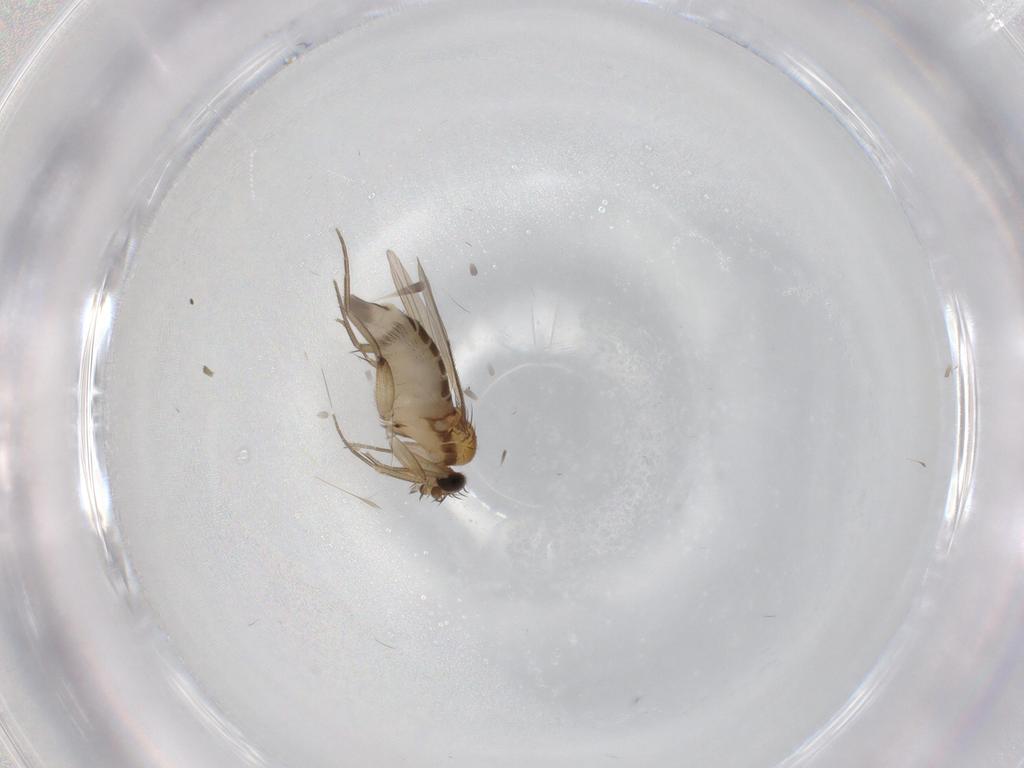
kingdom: Animalia
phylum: Arthropoda
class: Insecta
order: Diptera
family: Phoridae
